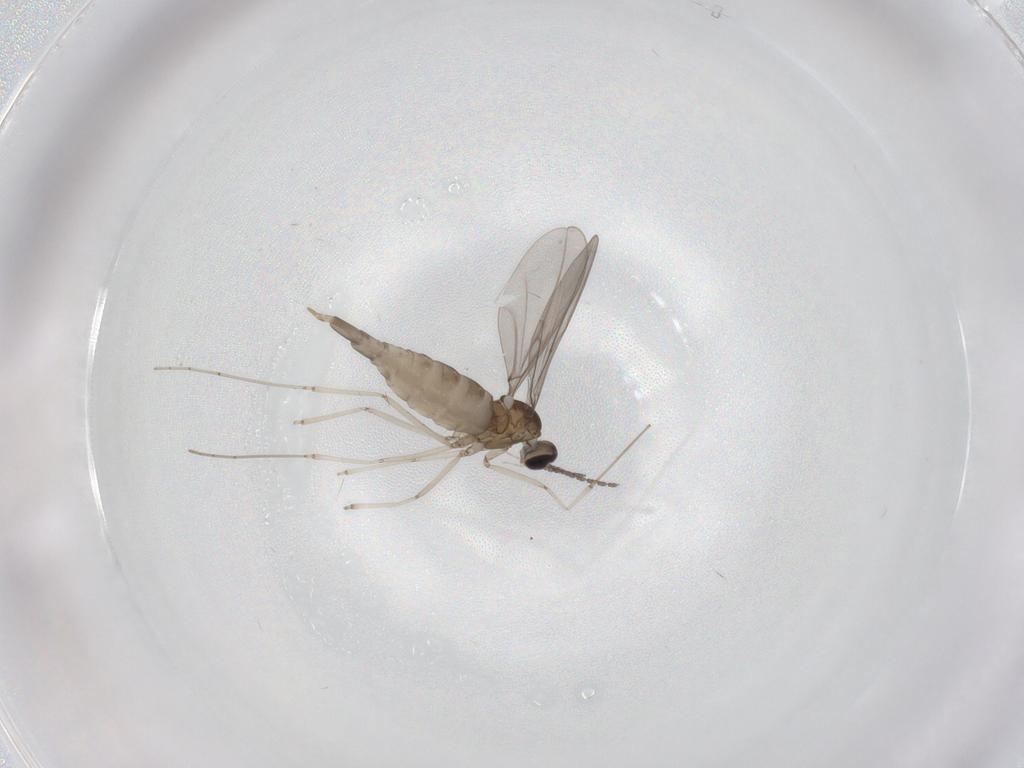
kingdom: Animalia
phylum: Arthropoda
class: Insecta
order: Diptera
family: Cecidomyiidae
